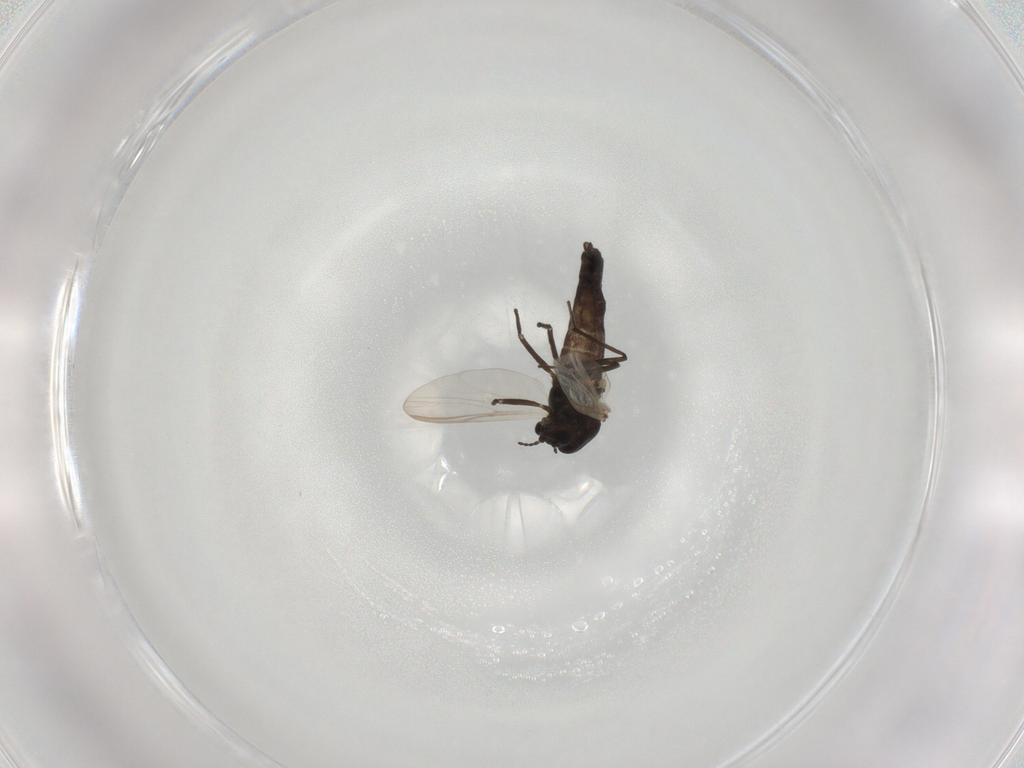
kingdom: Animalia
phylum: Arthropoda
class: Insecta
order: Diptera
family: Chironomidae
